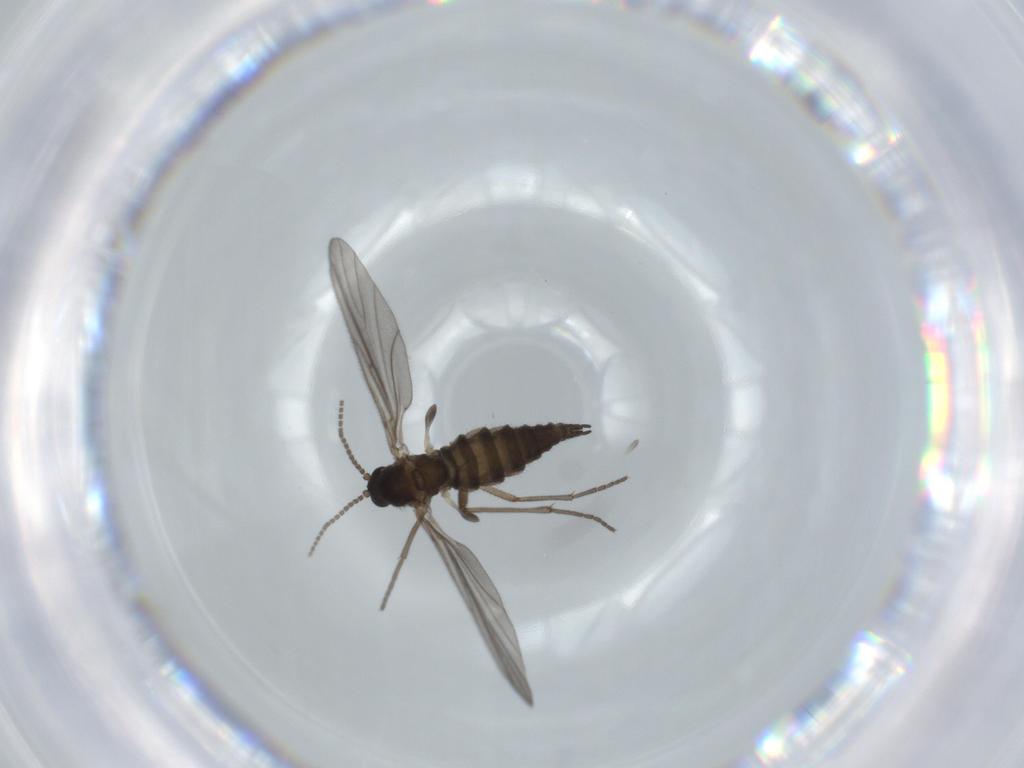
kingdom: Animalia
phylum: Arthropoda
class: Insecta
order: Diptera
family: Sciaridae
